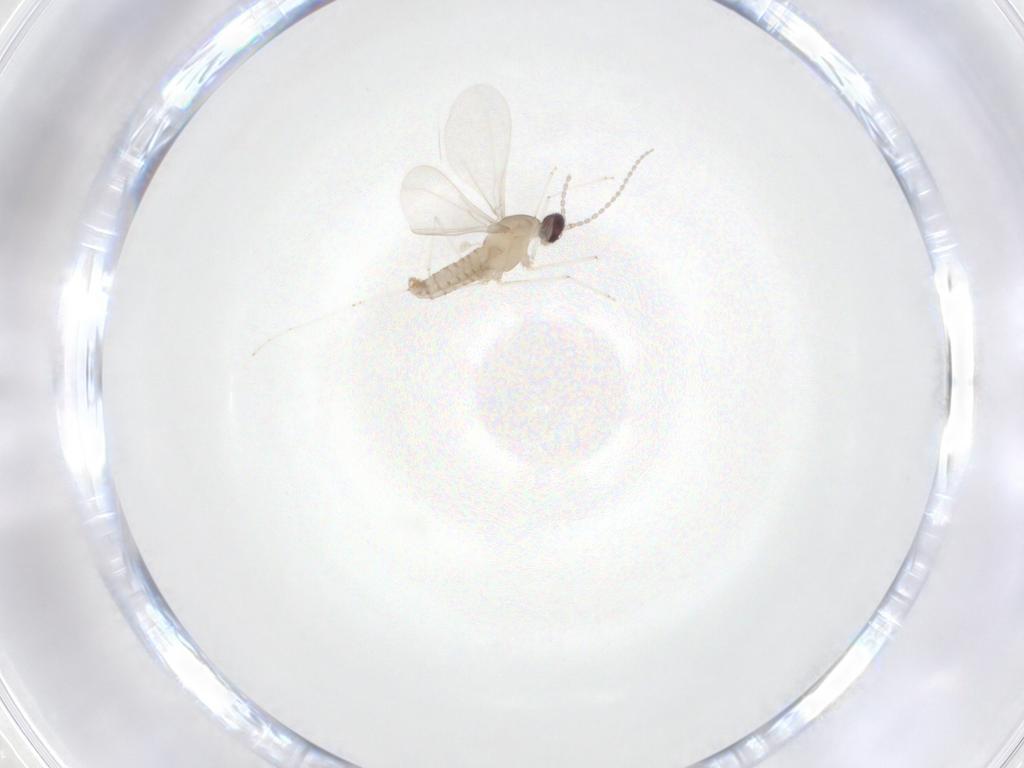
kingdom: Animalia
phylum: Arthropoda
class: Insecta
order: Diptera
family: Cecidomyiidae
